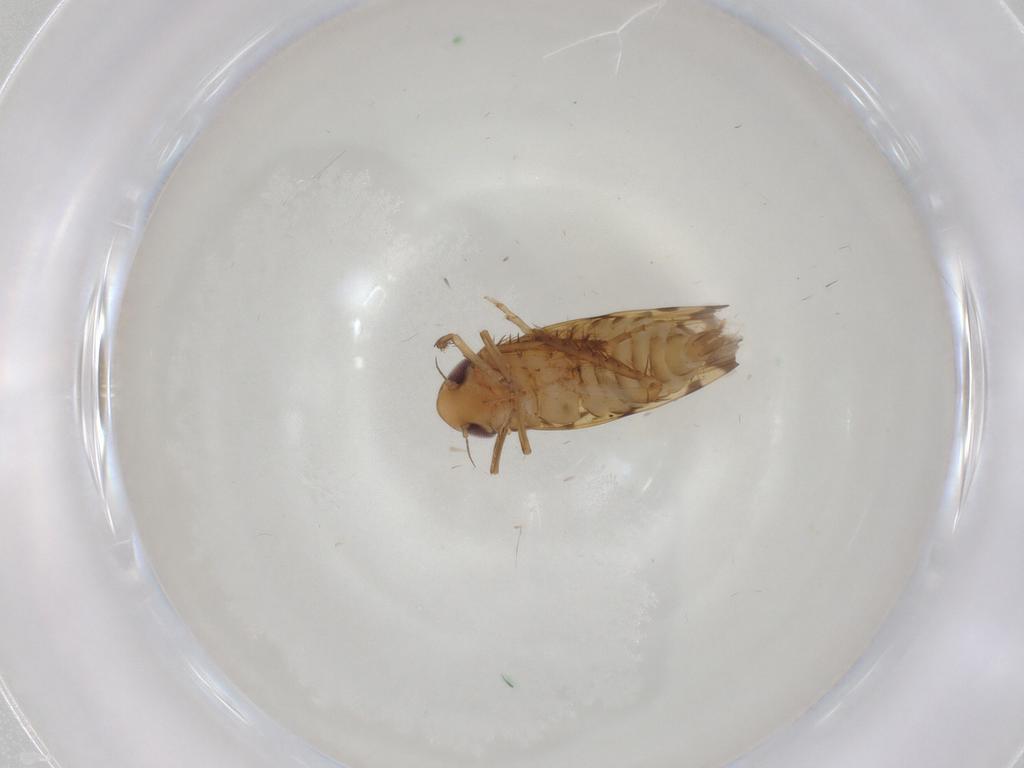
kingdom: Animalia
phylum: Arthropoda
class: Insecta
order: Hemiptera
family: Cicadellidae
